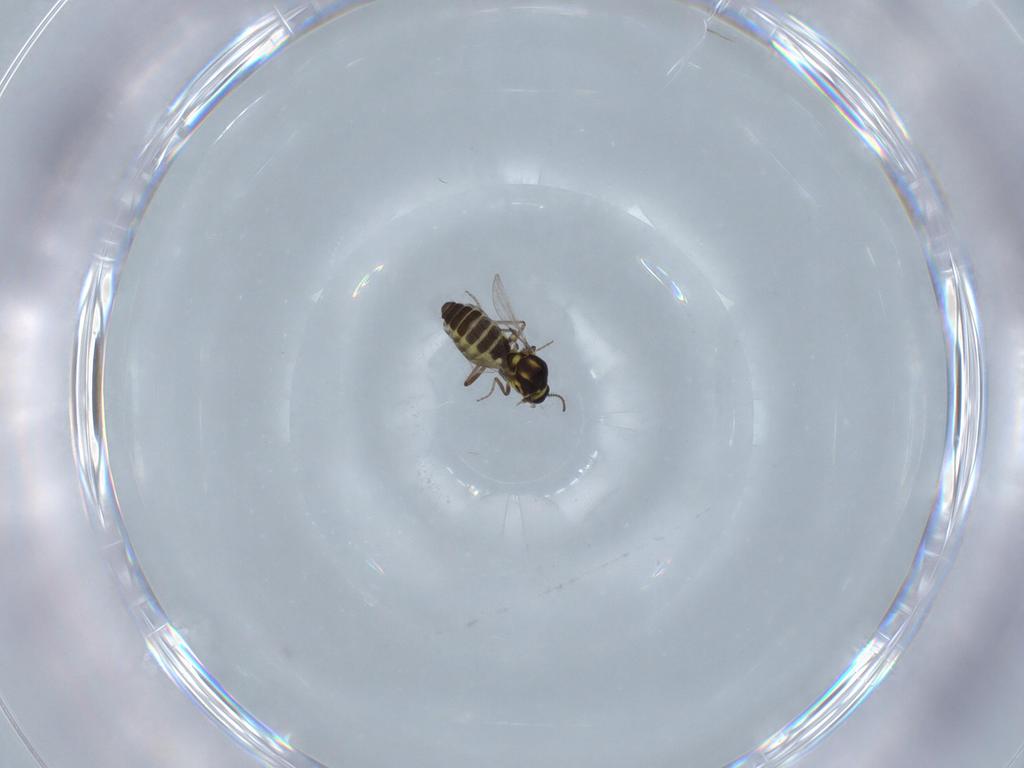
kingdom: Animalia
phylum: Arthropoda
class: Insecta
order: Diptera
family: Ceratopogonidae
